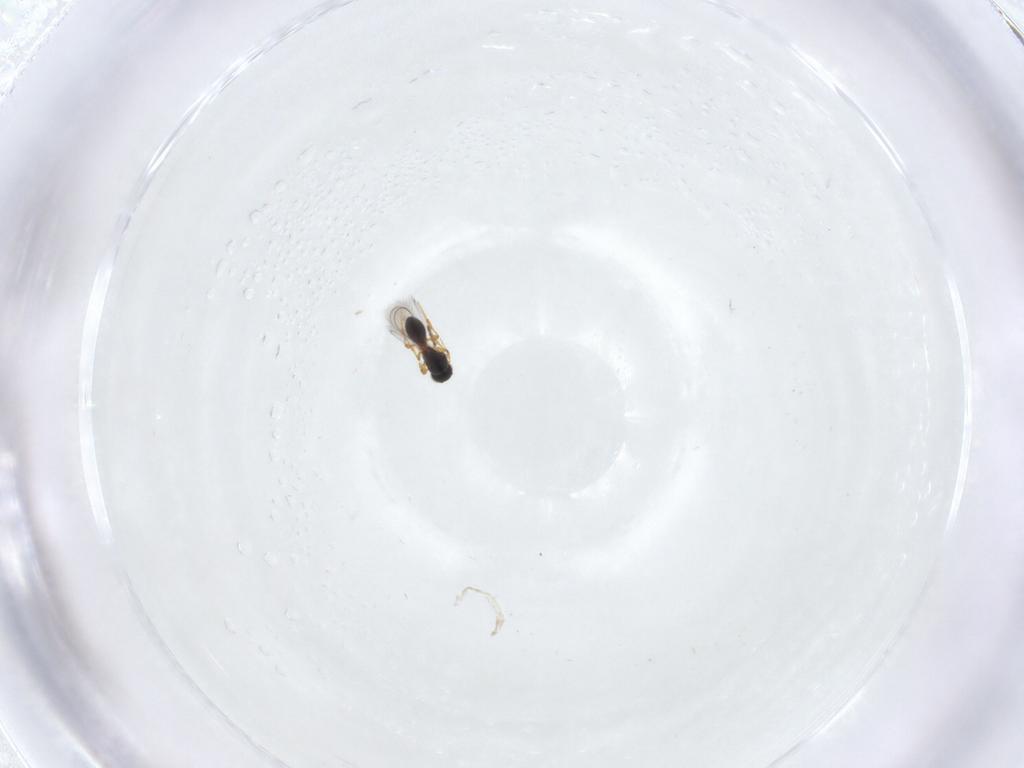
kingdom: Animalia
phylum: Arthropoda
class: Insecta
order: Hymenoptera
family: Platygastridae
